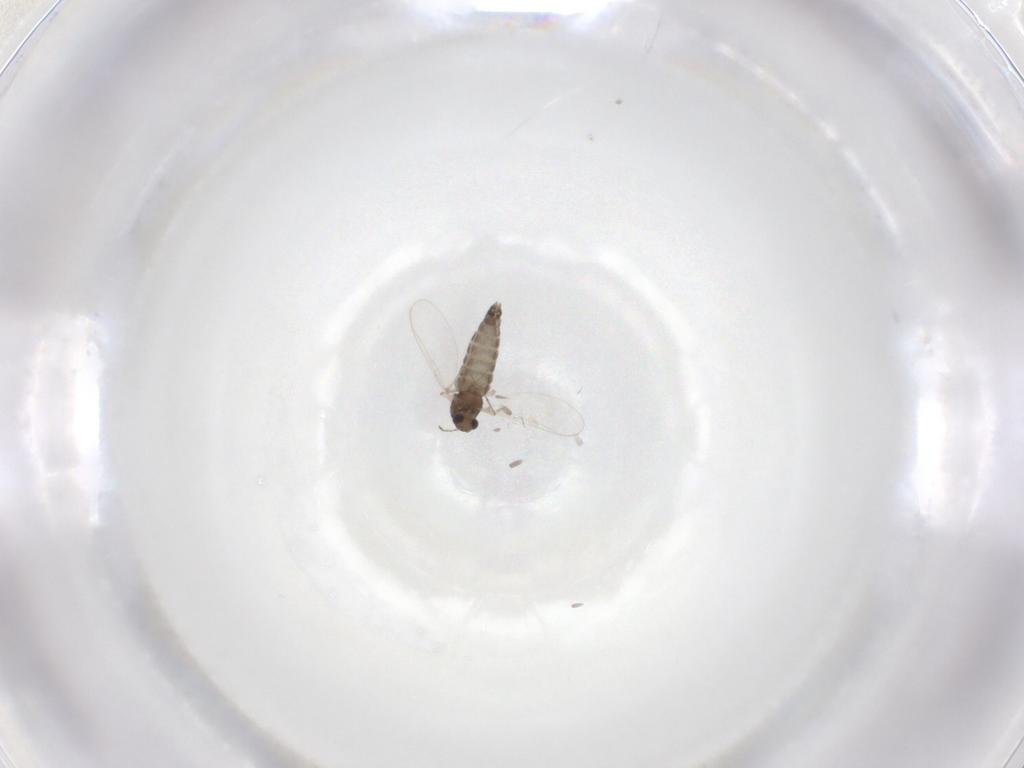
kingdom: Animalia
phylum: Arthropoda
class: Insecta
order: Diptera
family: Chironomidae
